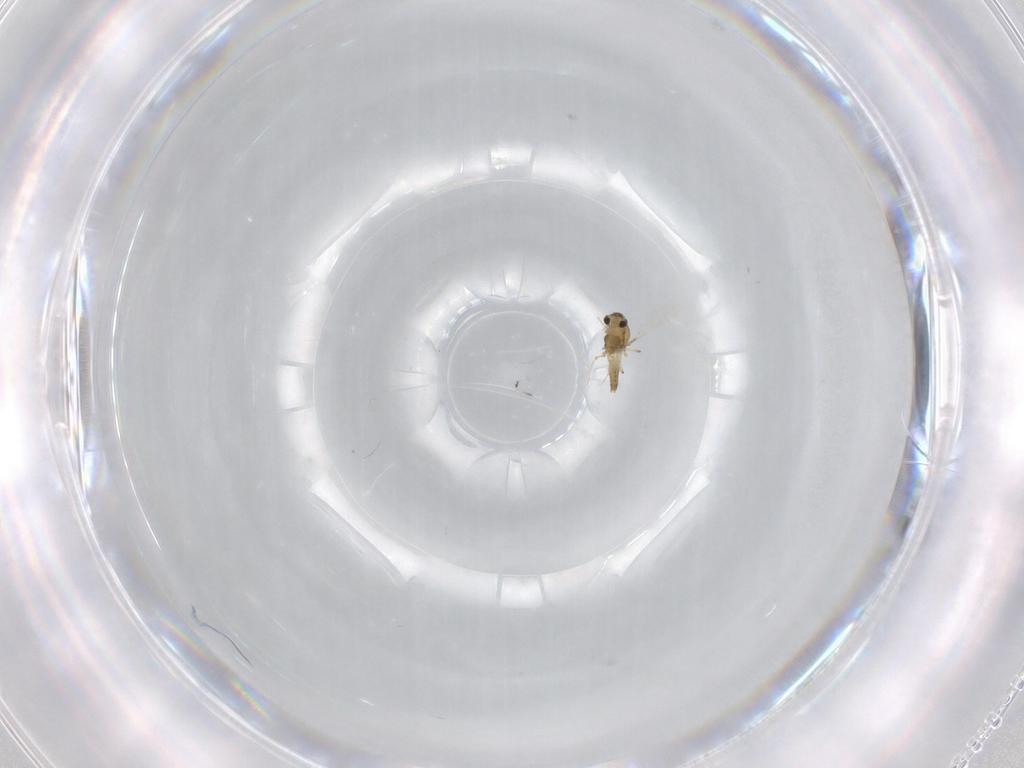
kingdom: Animalia
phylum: Arthropoda
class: Insecta
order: Diptera
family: Chironomidae
